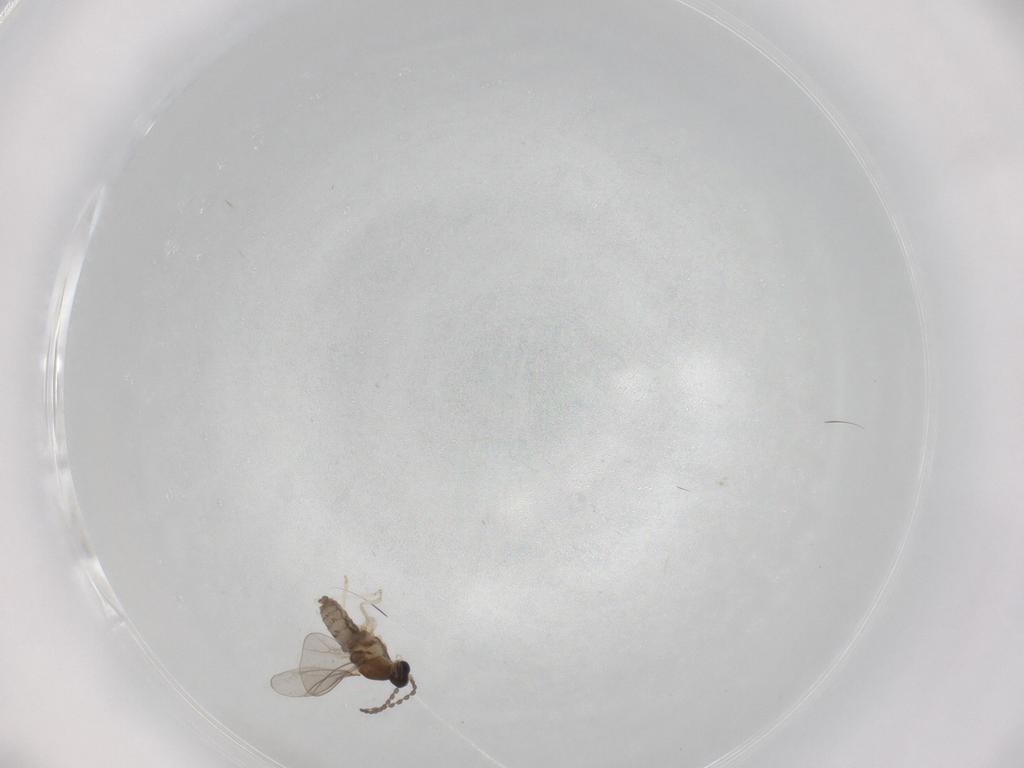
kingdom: Animalia
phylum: Arthropoda
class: Insecta
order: Diptera
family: Cecidomyiidae
